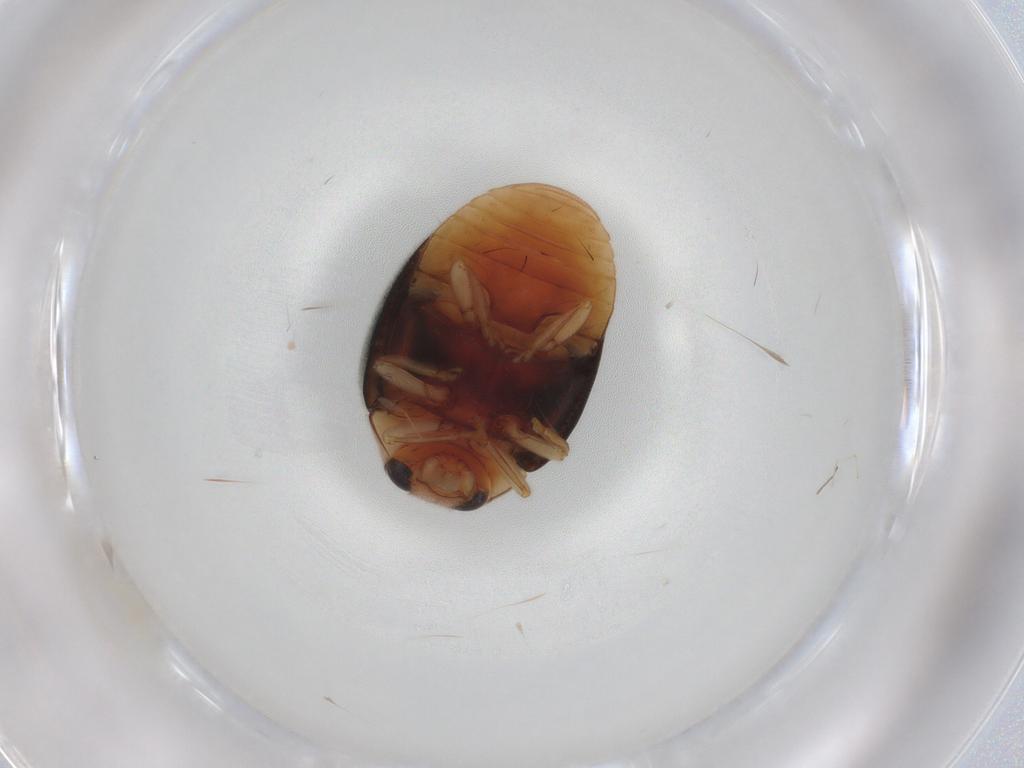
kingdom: Animalia
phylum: Arthropoda
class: Insecta
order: Coleoptera
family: Coccinellidae
